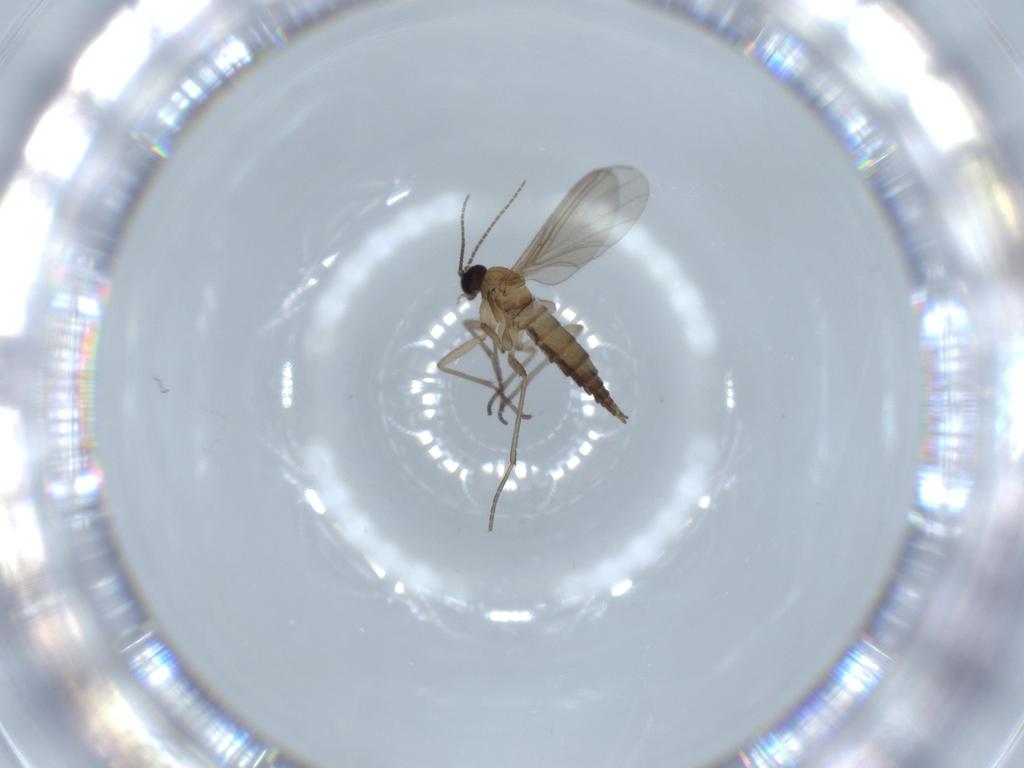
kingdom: Animalia
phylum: Arthropoda
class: Insecta
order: Diptera
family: Sciaridae
